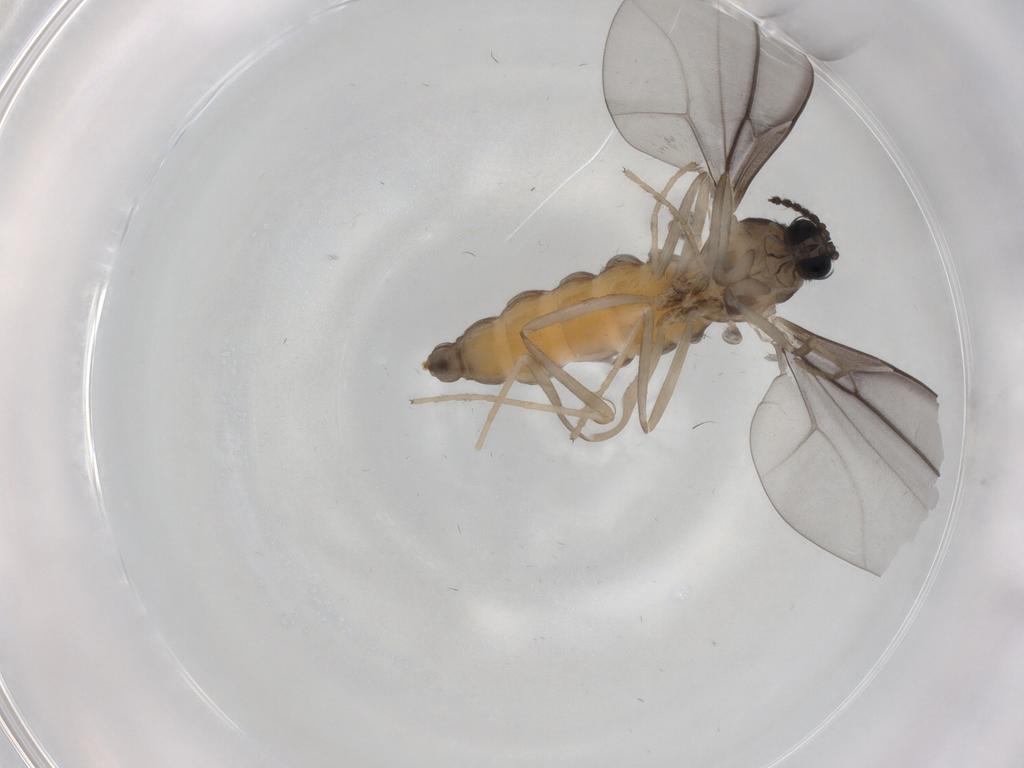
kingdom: Animalia
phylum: Arthropoda
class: Insecta
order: Diptera
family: Cecidomyiidae
